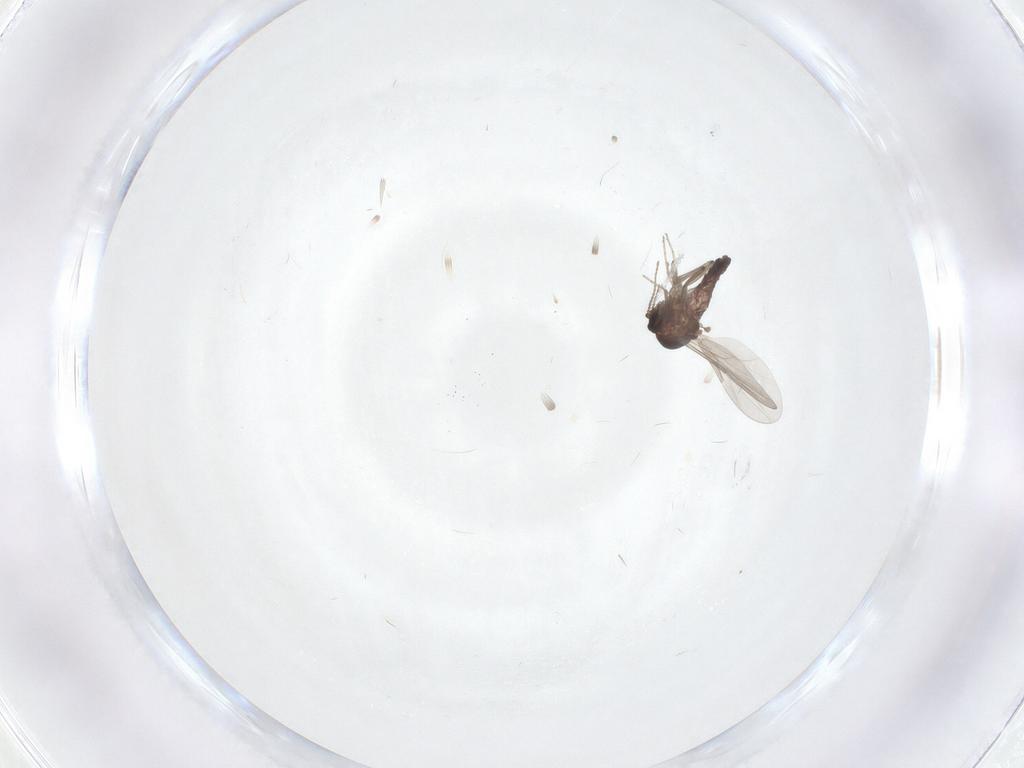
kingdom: Animalia
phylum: Arthropoda
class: Insecta
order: Diptera
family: Ceratopogonidae
